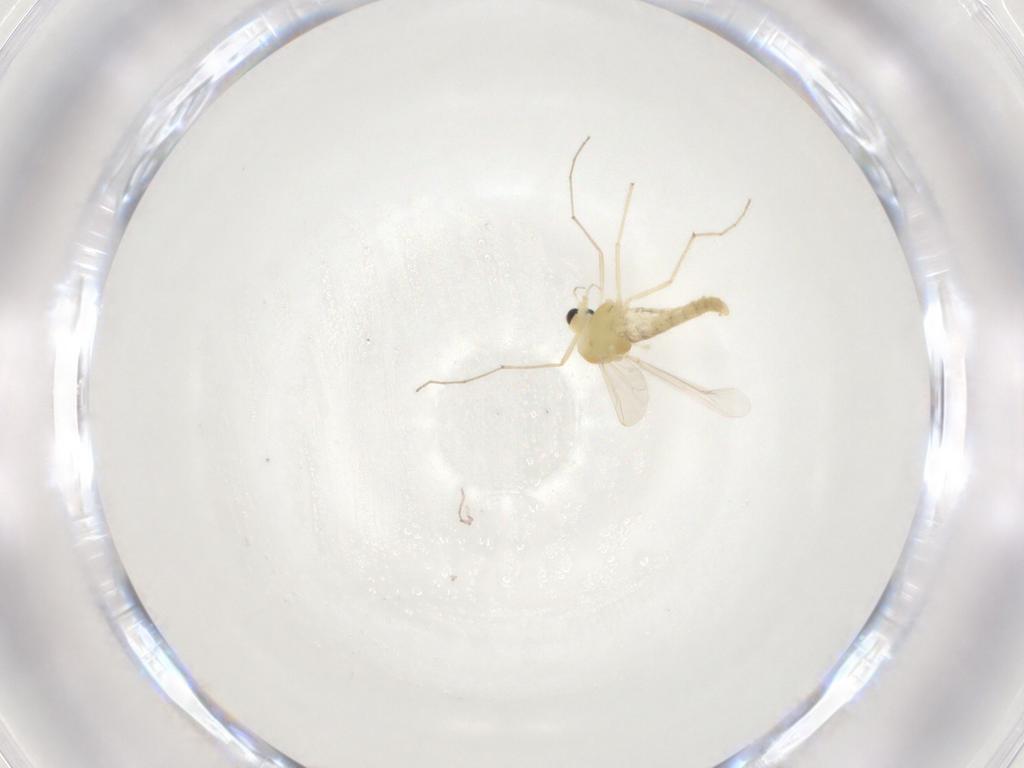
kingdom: Animalia
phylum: Arthropoda
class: Insecta
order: Diptera
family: Chironomidae
